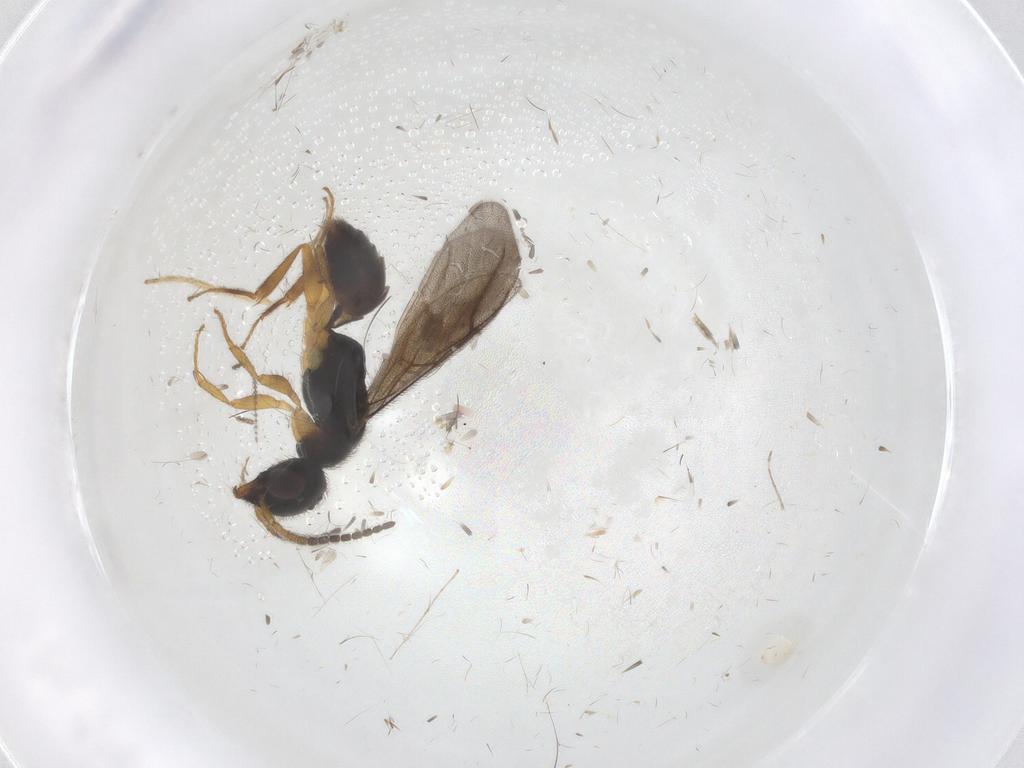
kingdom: Animalia
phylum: Arthropoda
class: Insecta
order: Hymenoptera
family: Bethylidae
